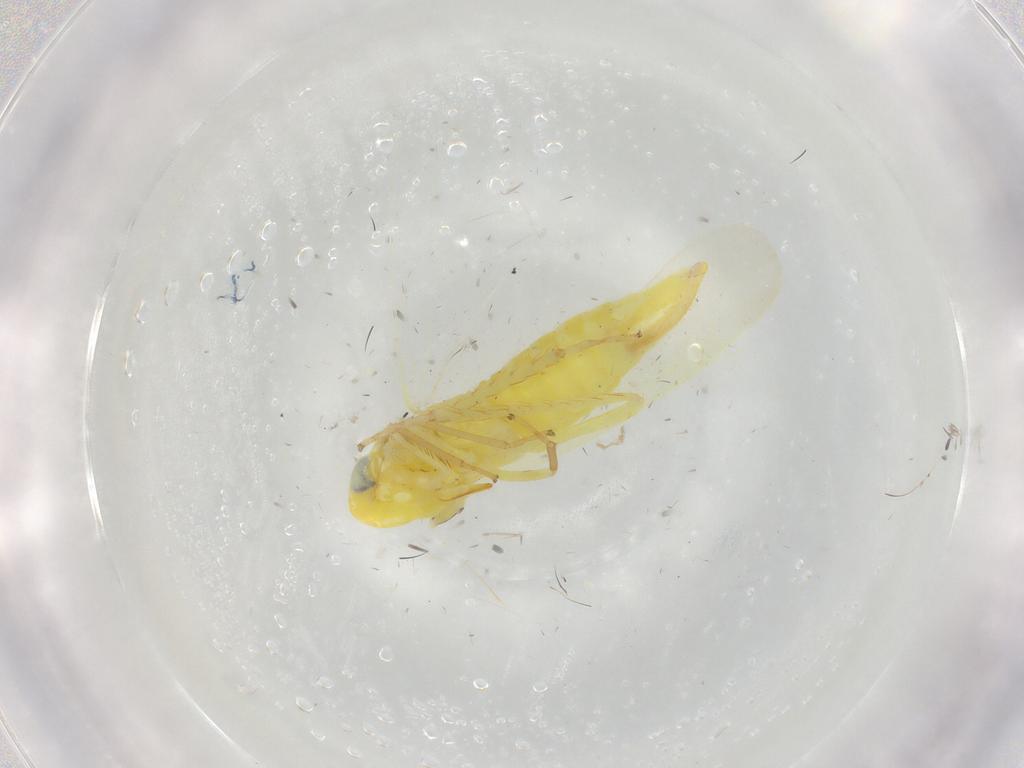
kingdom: Animalia
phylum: Arthropoda
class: Insecta
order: Hemiptera
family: Cicadellidae
